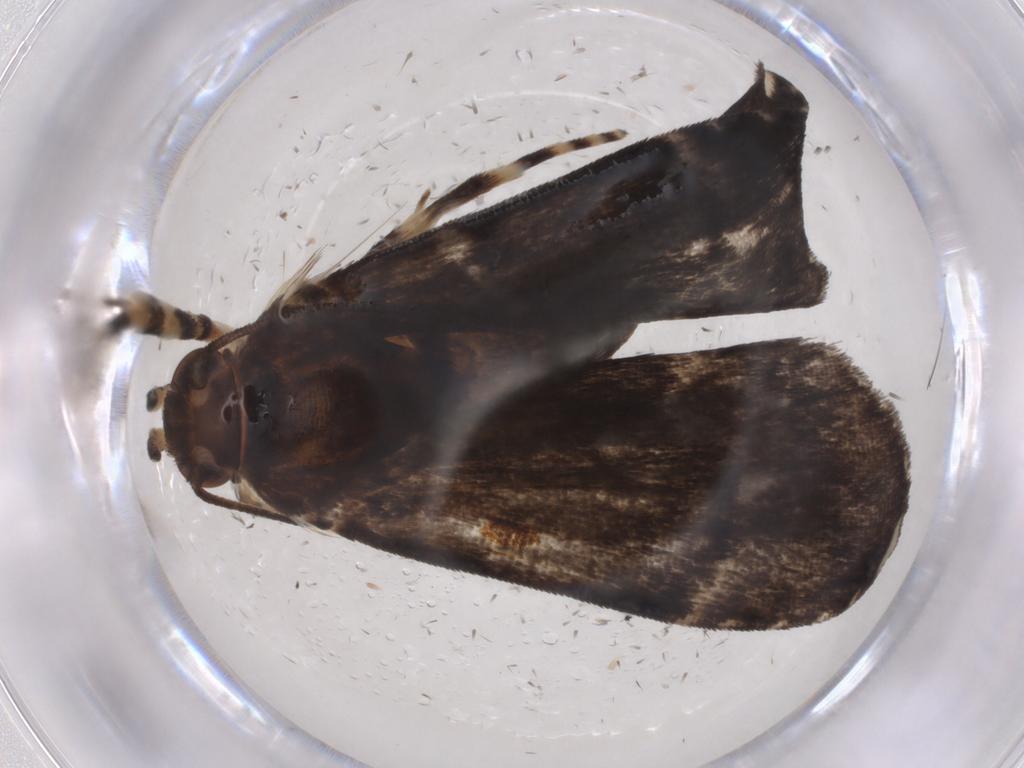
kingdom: Animalia
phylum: Arthropoda
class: Insecta
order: Lepidoptera
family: Immidae
